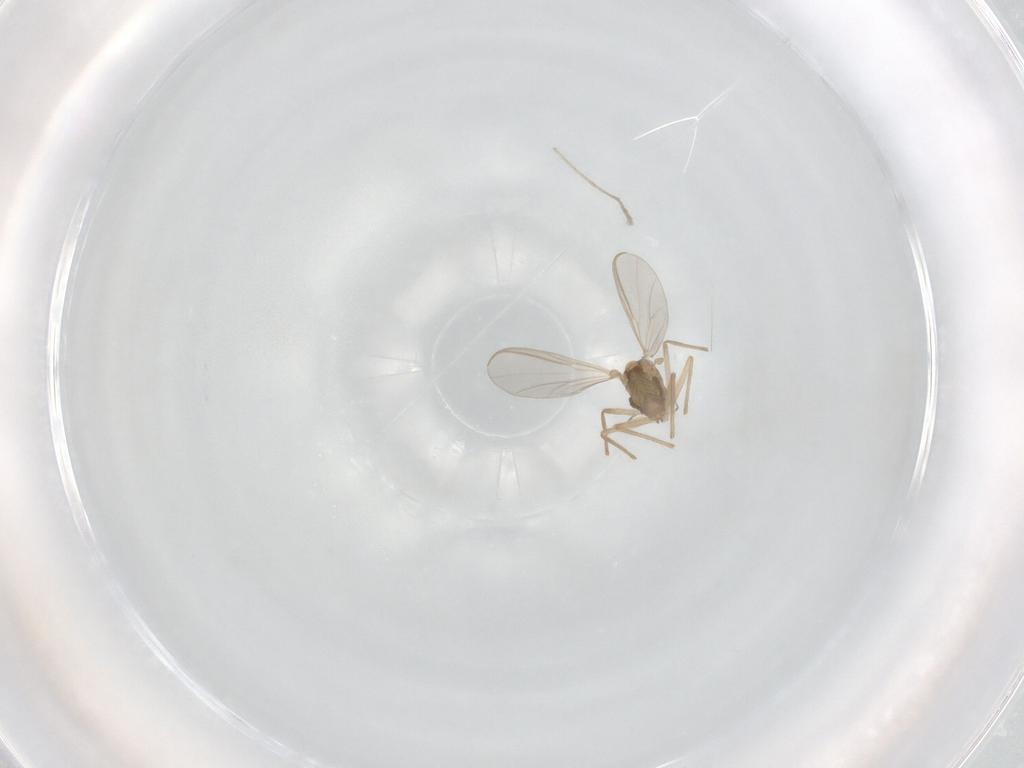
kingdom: Animalia
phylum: Arthropoda
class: Insecta
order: Diptera
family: Chironomidae
